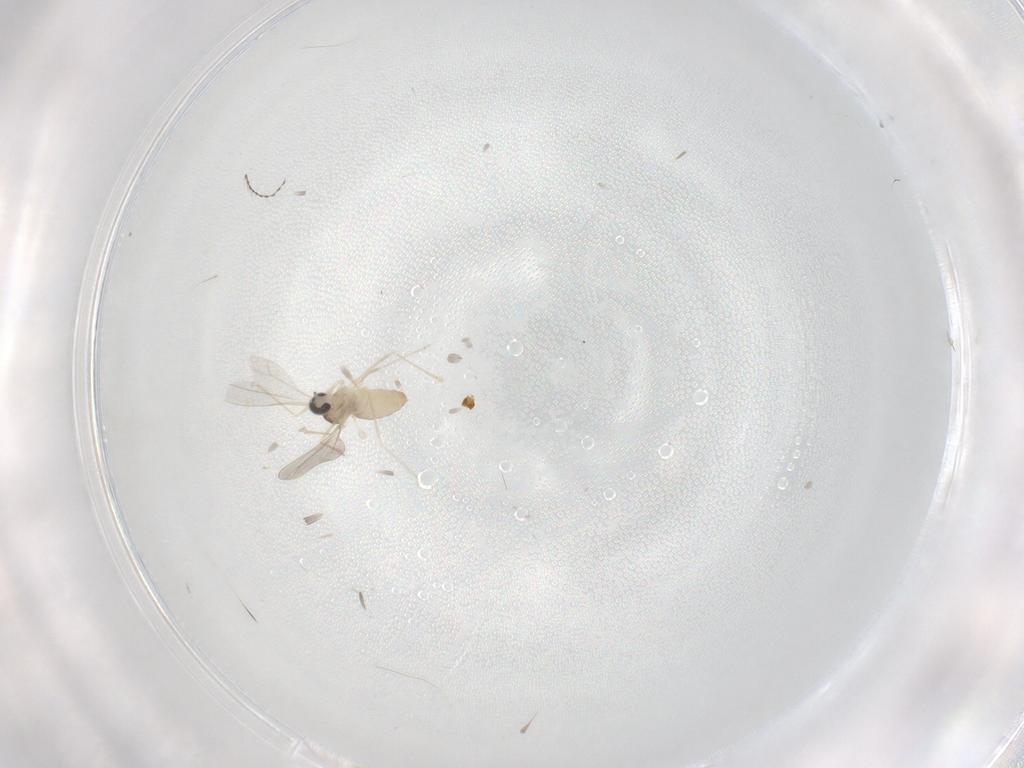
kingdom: Animalia
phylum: Arthropoda
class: Insecta
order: Diptera
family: Cecidomyiidae
